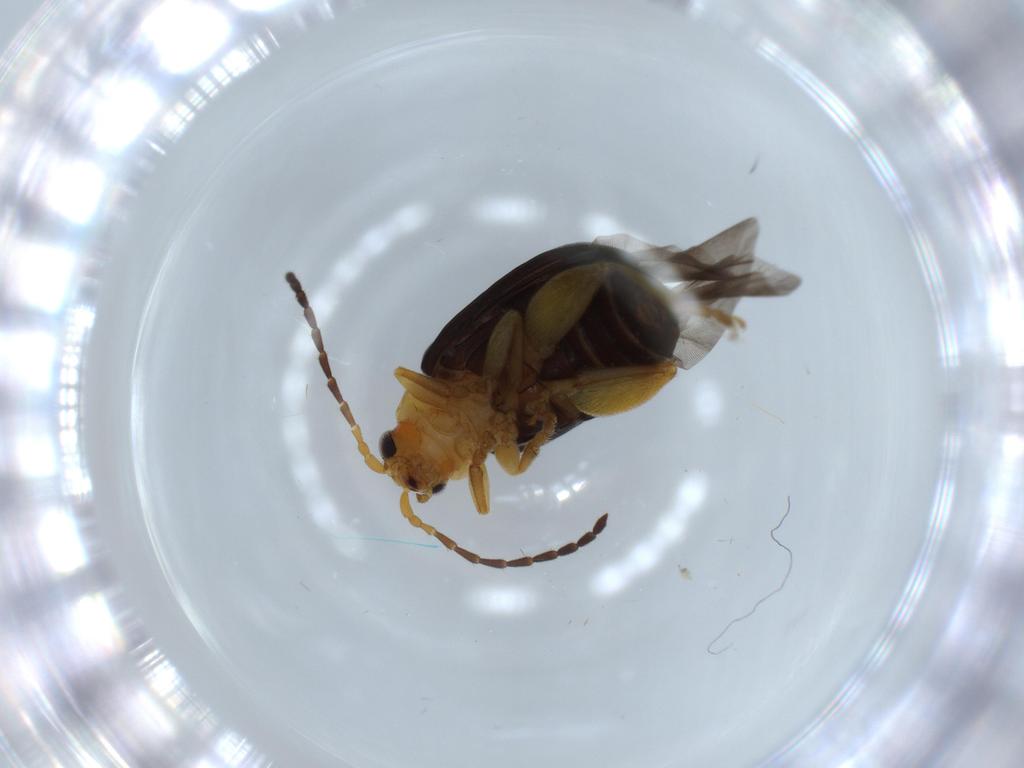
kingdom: Animalia
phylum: Arthropoda
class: Insecta
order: Coleoptera
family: Chrysomelidae
